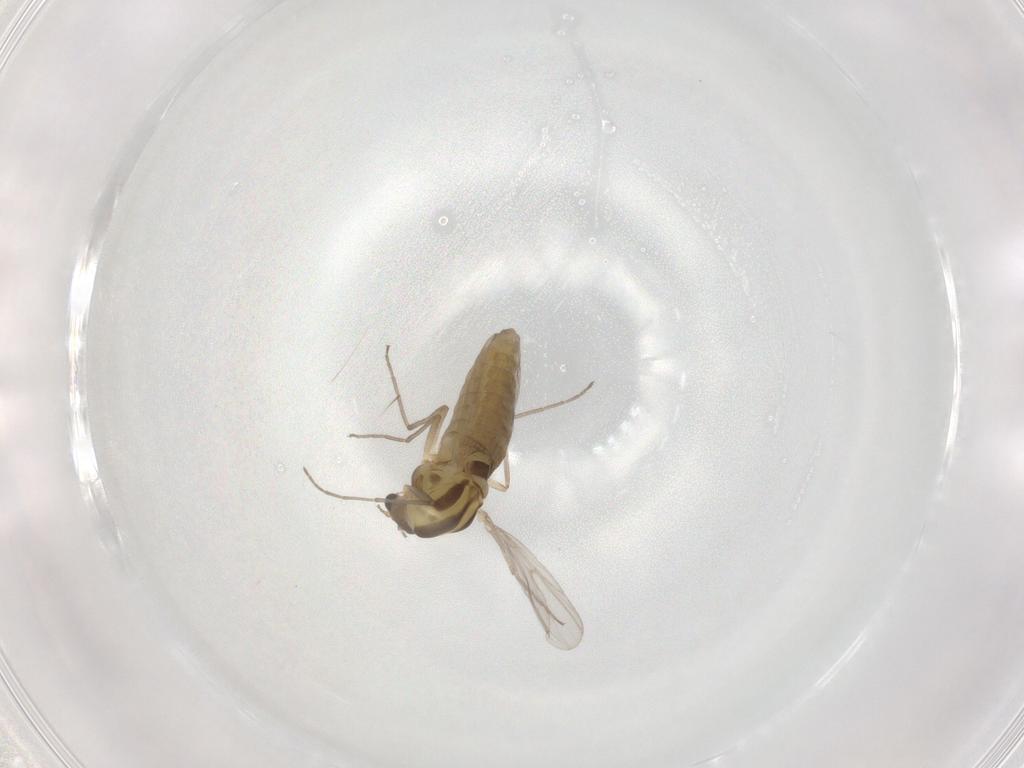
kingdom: Animalia
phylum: Arthropoda
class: Insecta
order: Diptera
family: Chironomidae
